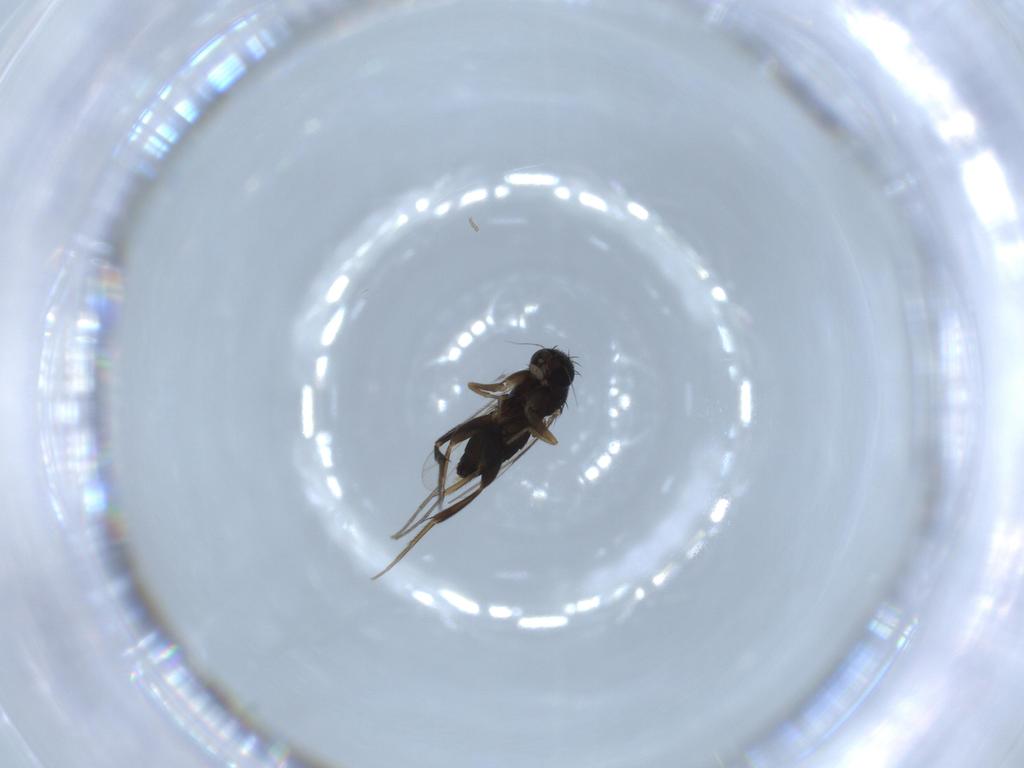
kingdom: Animalia
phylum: Arthropoda
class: Insecta
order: Diptera
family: Phoridae
